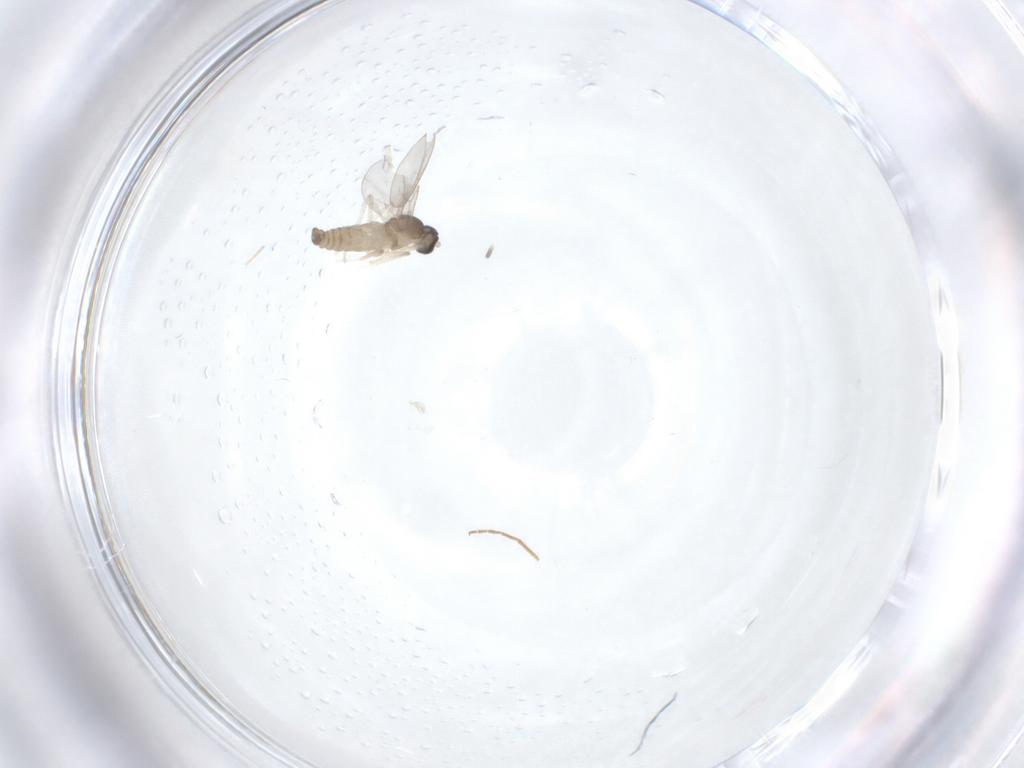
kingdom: Animalia
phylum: Arthropoda
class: Insecta
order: Diptera
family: Chironomidae
